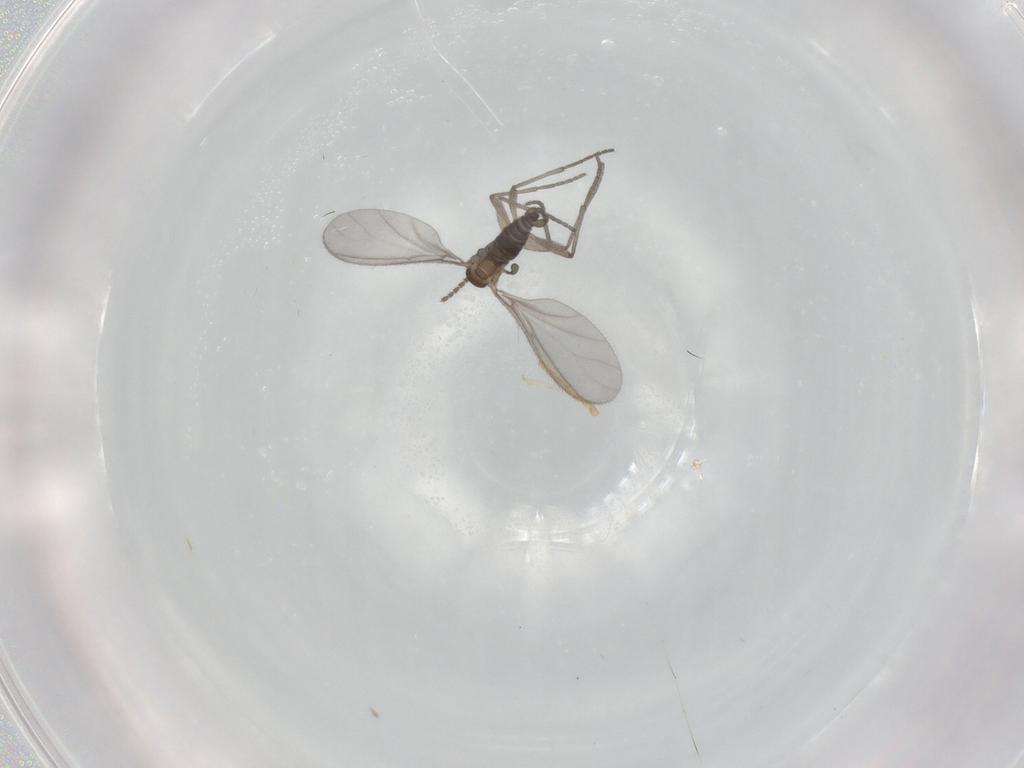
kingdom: Animalia
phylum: Arthropoda
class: Insecta
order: Diptera
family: Sciaridae
